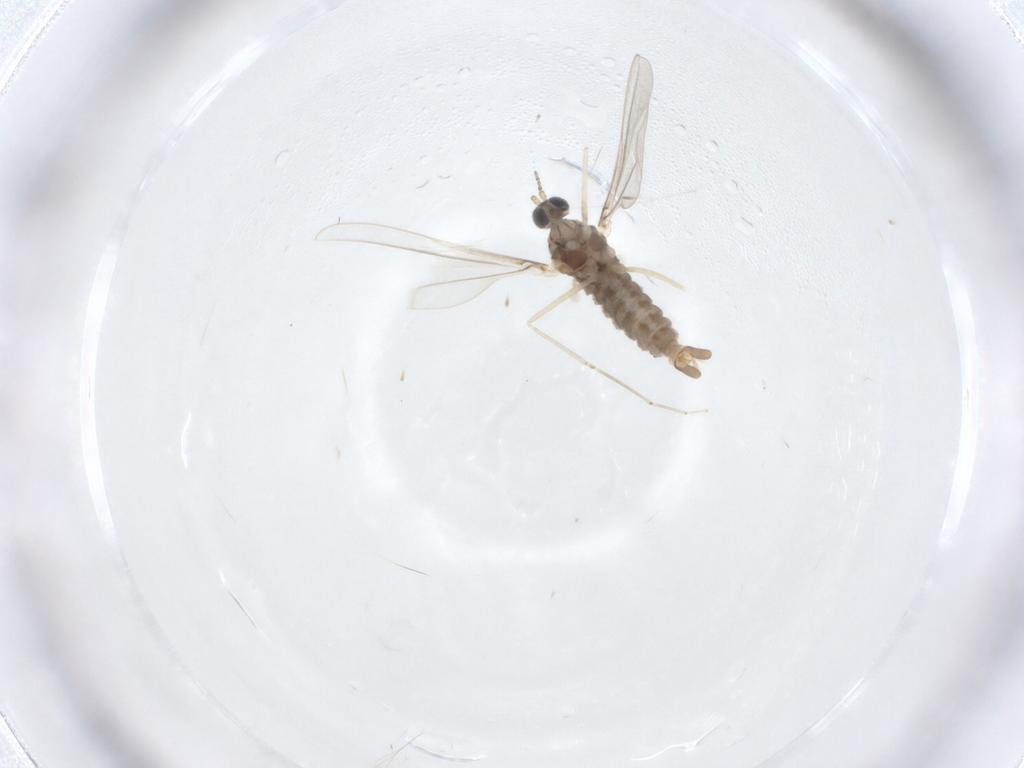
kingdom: Animalia
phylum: Arthropoda
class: Insecta
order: Diptera
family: Cecidomyiidae
